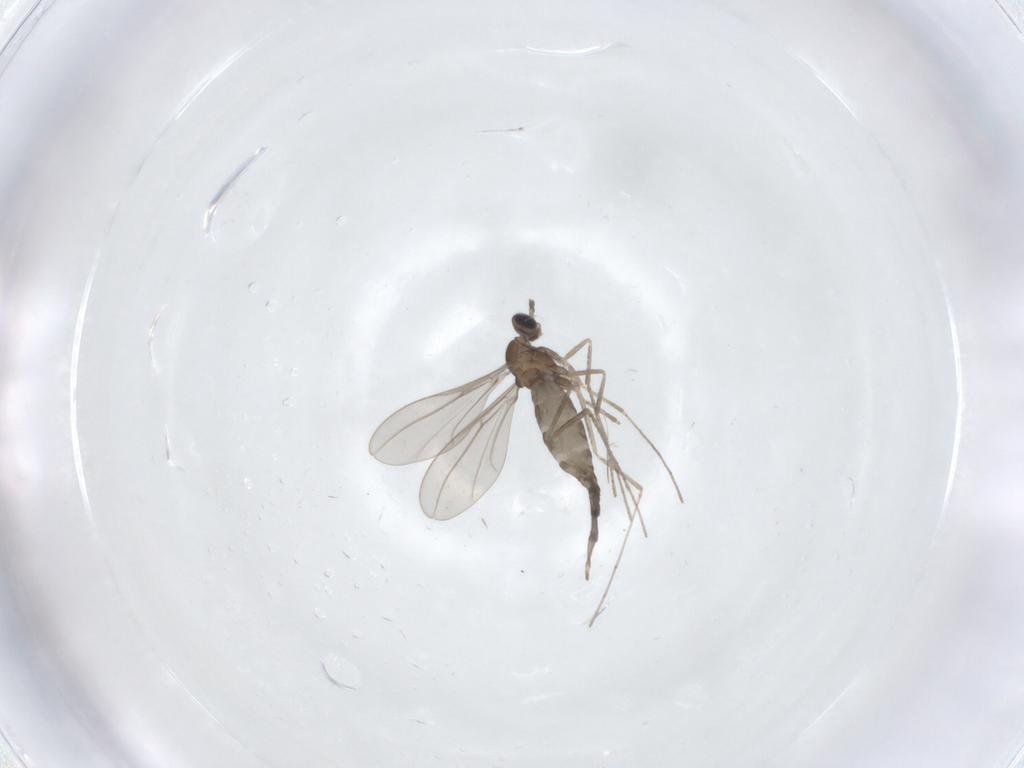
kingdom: Animalia
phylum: Arthropoda
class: Insecta
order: Diptera
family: Cecidomyiidae
